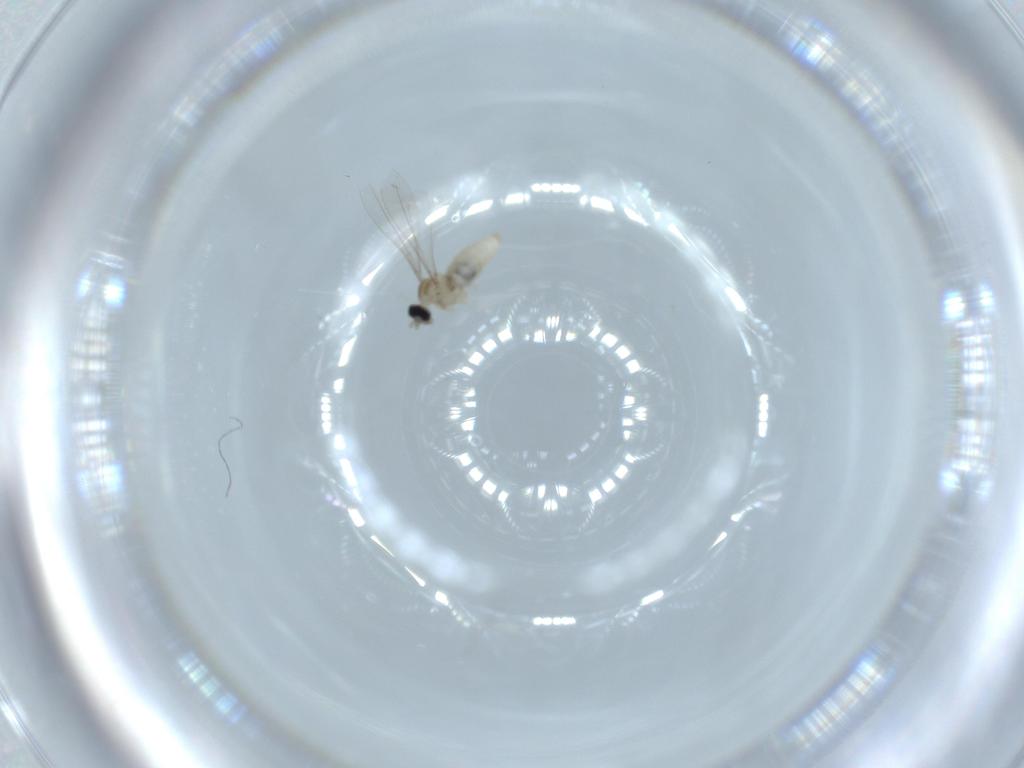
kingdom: Animalia
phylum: Arthropoda
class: Insecta
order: Diptera
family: Cecidomyiidae
